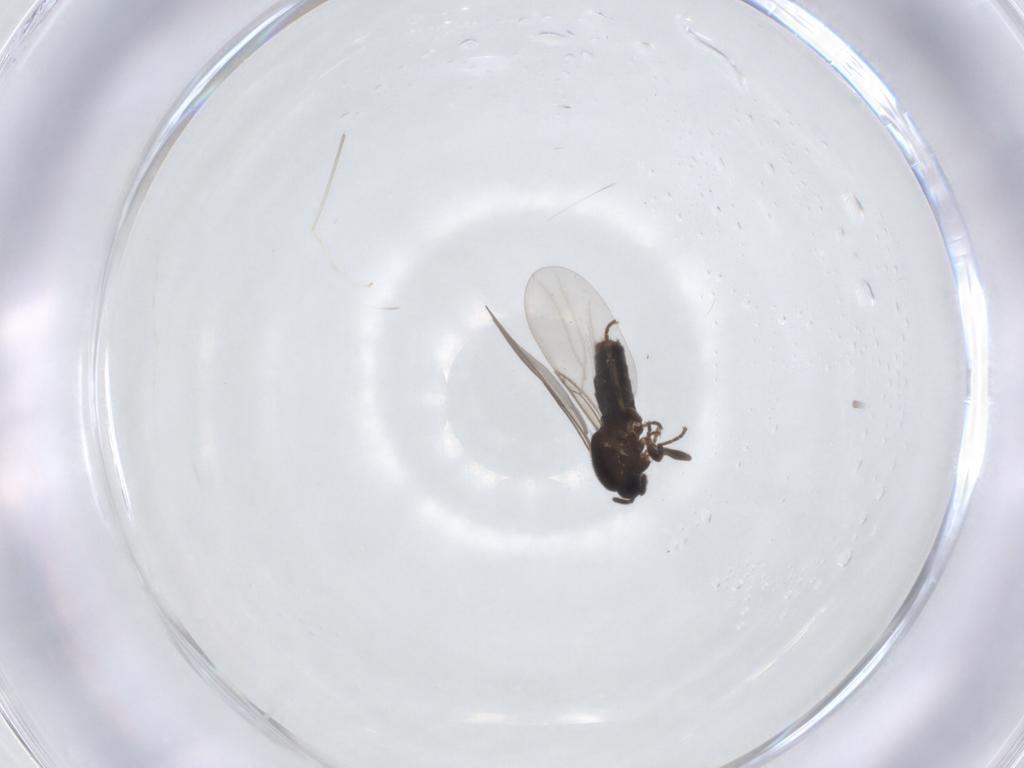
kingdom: Animalia
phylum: Arthropoda
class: Insecta
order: Diptera
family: Scatopsidae
